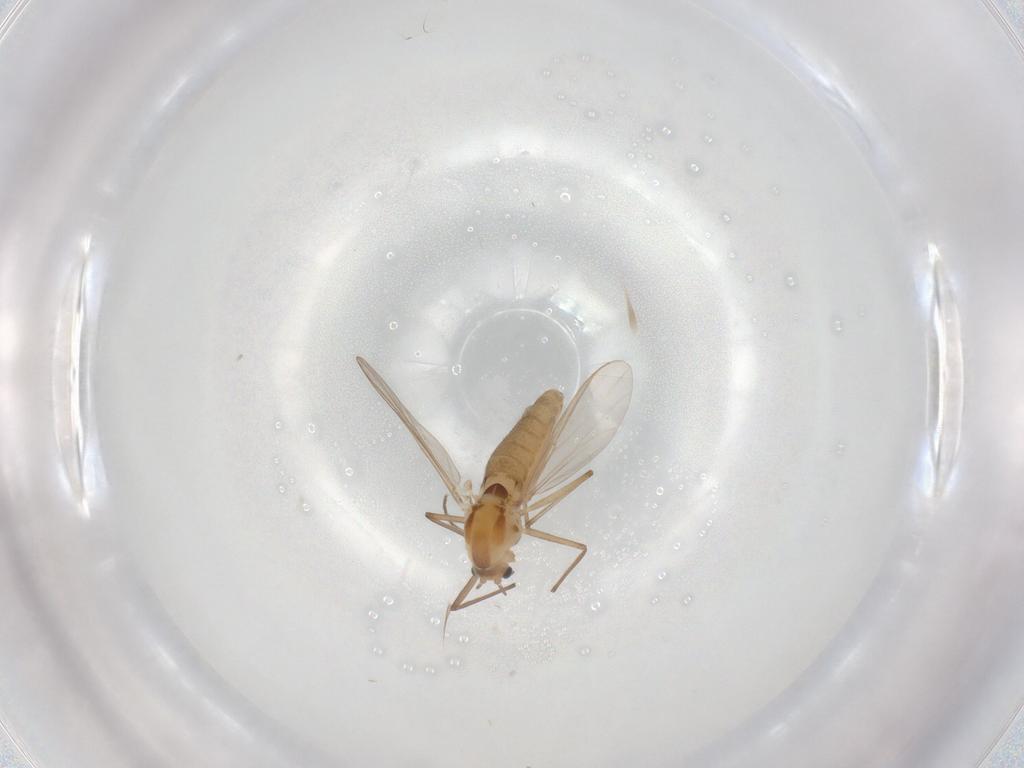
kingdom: Animalia
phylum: Arthropoda
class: Insecta
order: Diptera
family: Chironomidae
